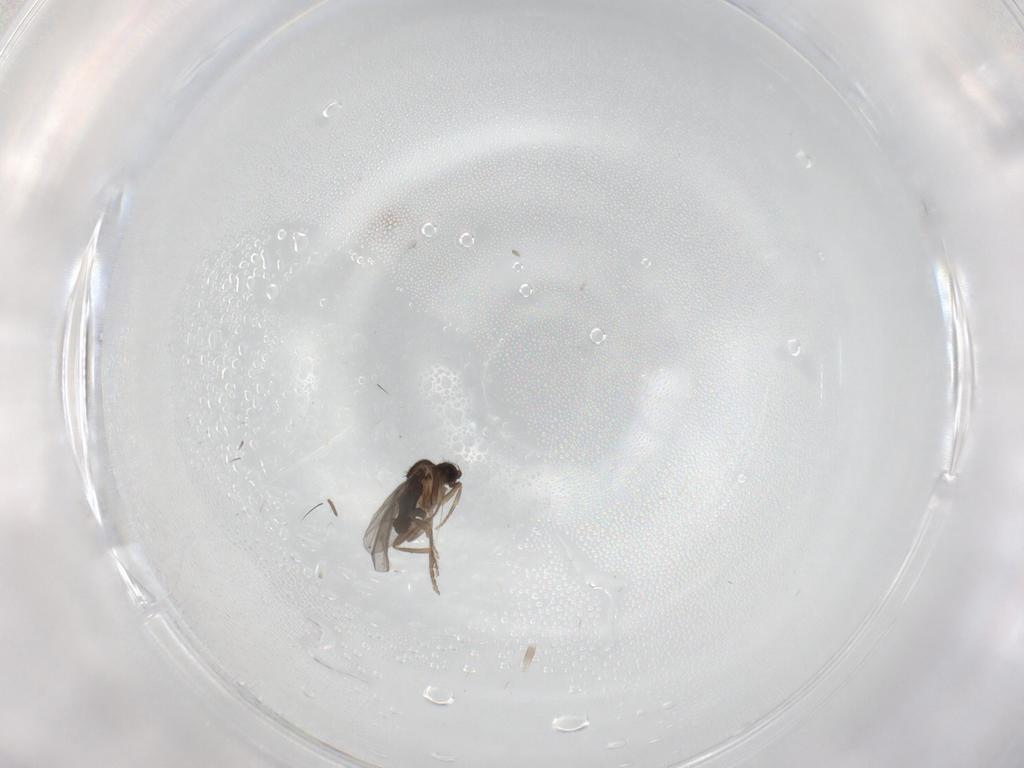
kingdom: Animalia
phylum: Arthropoda
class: Insecta
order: Diptera
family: Limoniidae
